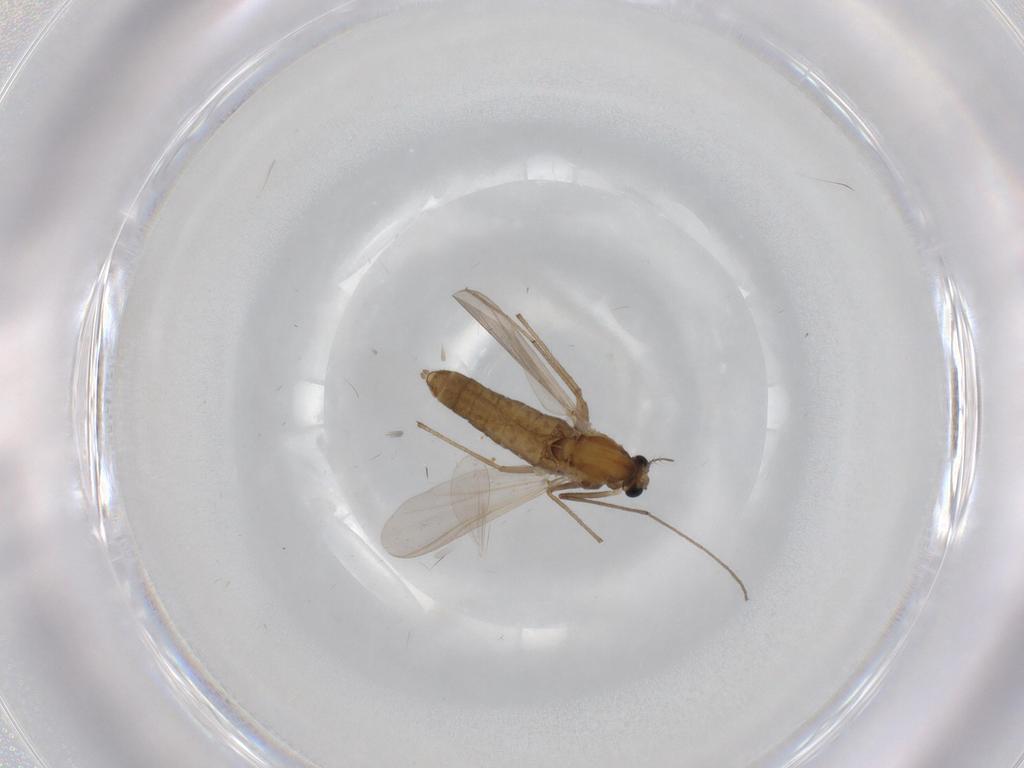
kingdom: Animalia
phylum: Arthropoda
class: Insecta
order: Diptera
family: Chironomidae
